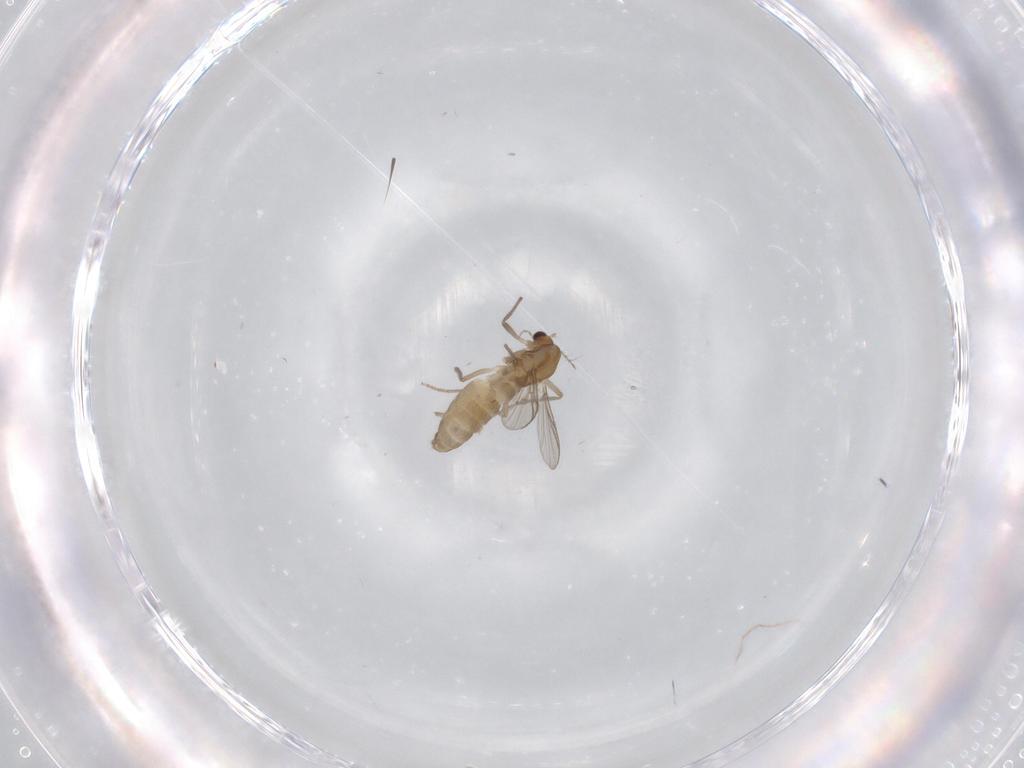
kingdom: Animalia
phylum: Arthropoda
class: Insecta
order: Diptera
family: Chironomidae
